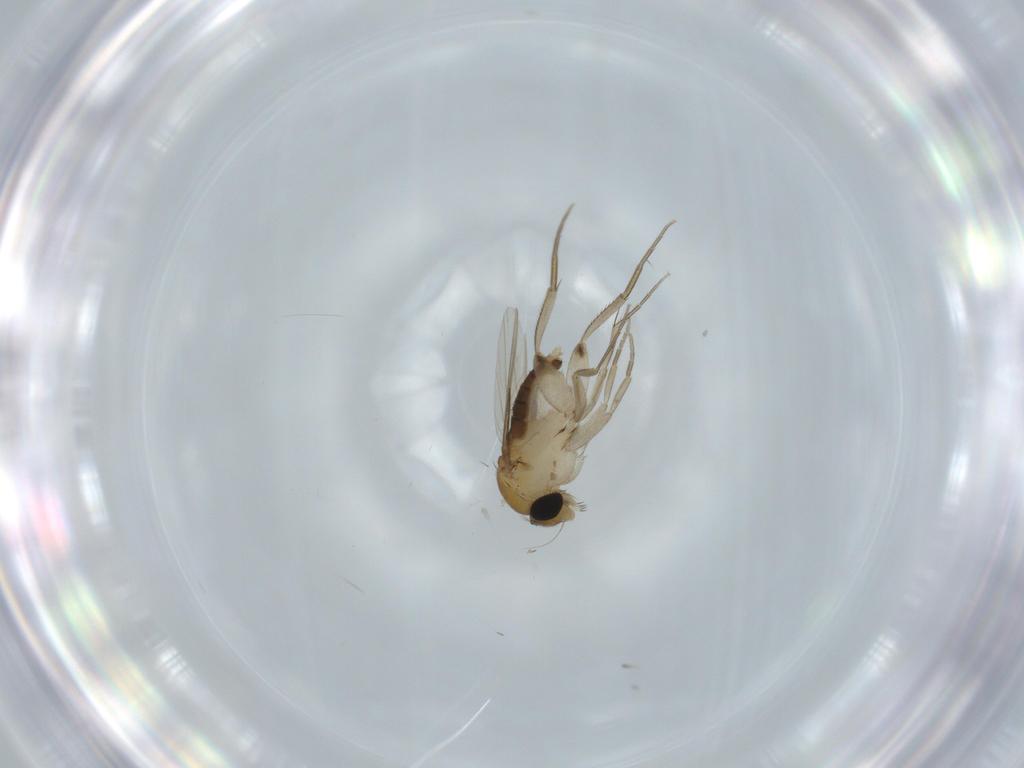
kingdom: Animalia
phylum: Arthropoda
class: Insecta
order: Diptera
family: Phoridae
